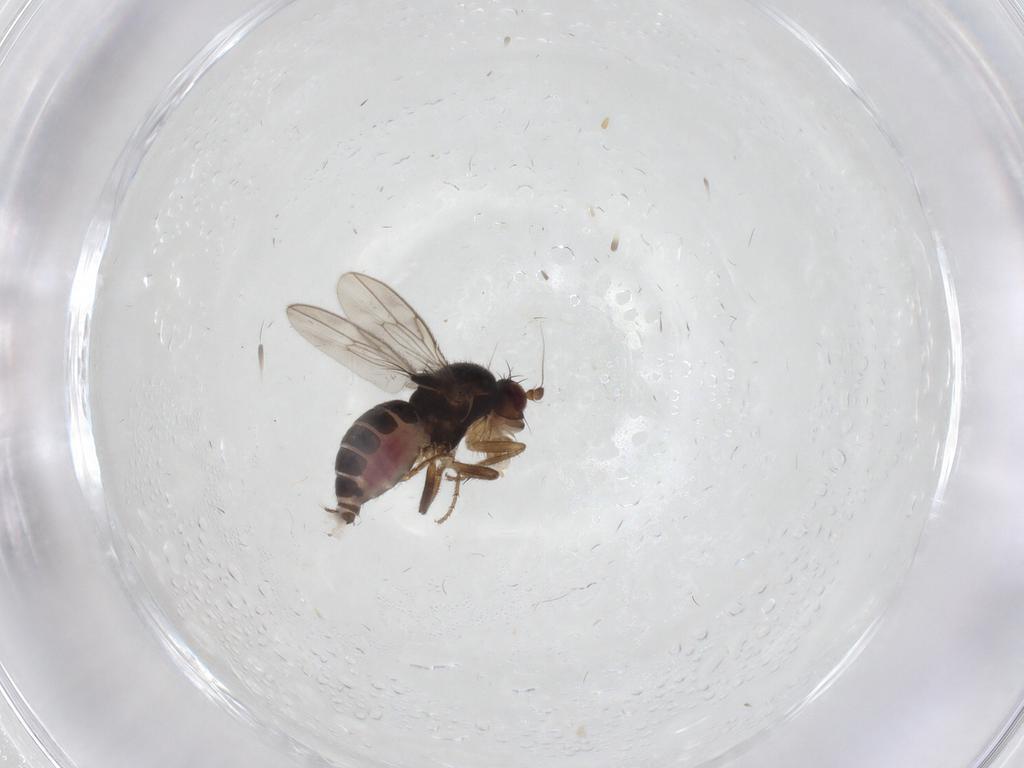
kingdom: Animalia
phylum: Arthropoda
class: Insecta
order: Diptera
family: Sphaeroceridae
